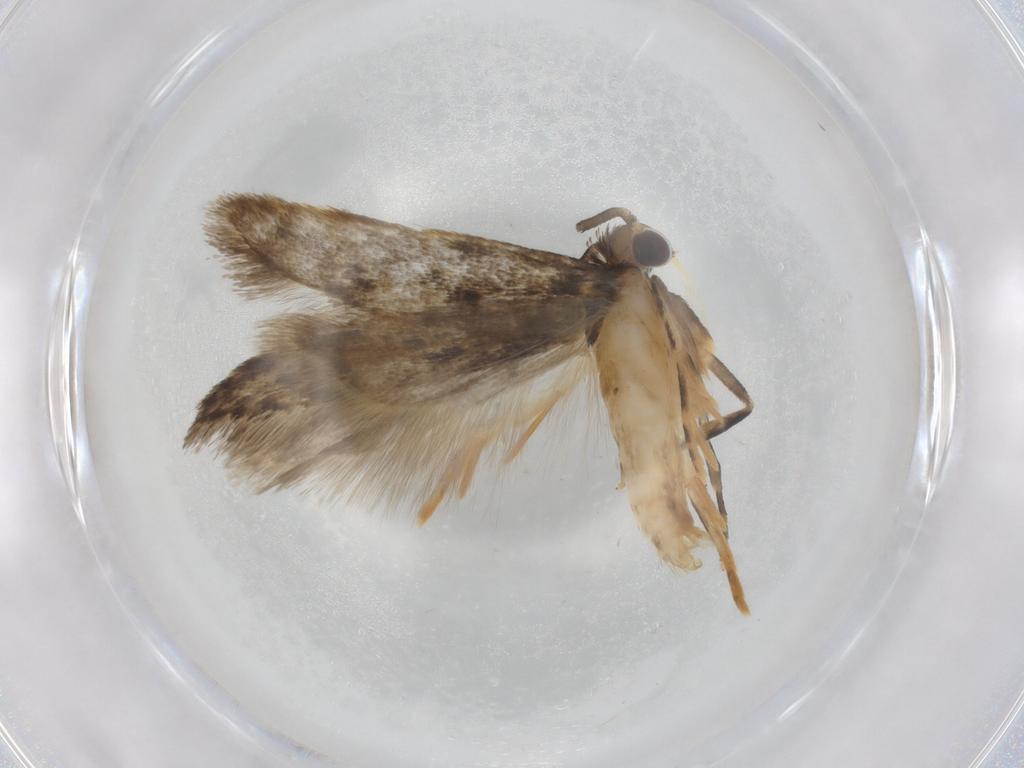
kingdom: Animalia
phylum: Arthropoda
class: Insecta
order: Lepidoptera
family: Autostichidae
